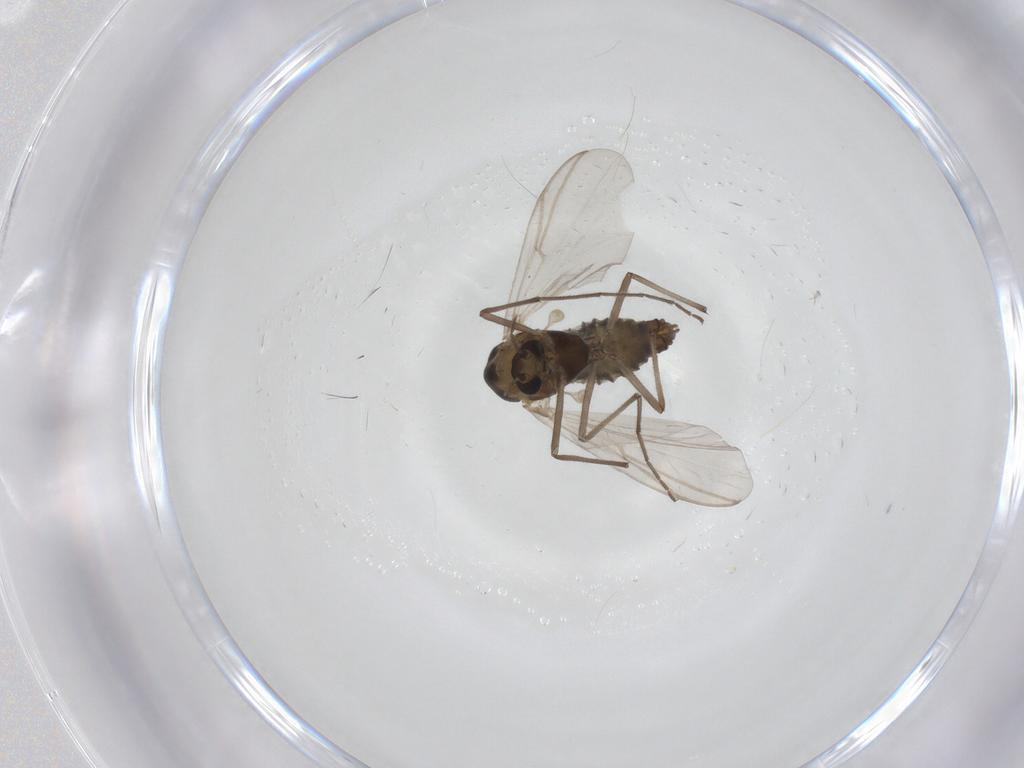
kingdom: Animalia
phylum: Arthropoda
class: Insecta
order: Diptera
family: Chironomidae
